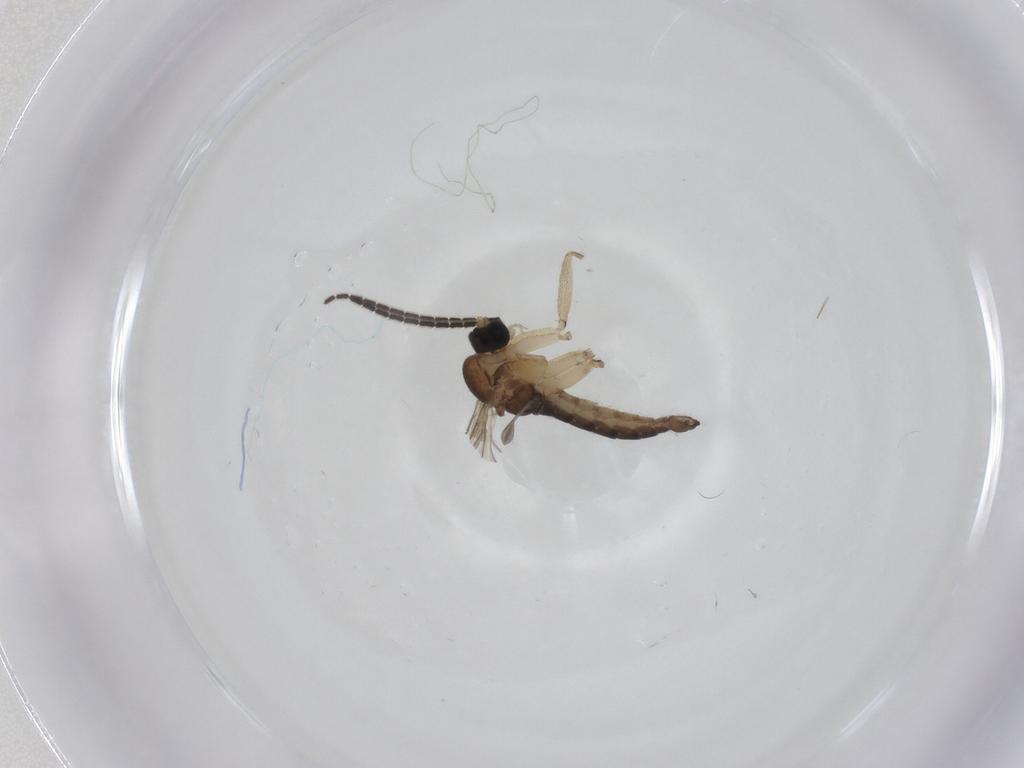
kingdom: Animalia
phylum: Arthropoda
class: Insecta
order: Diptera
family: Sciaridae
